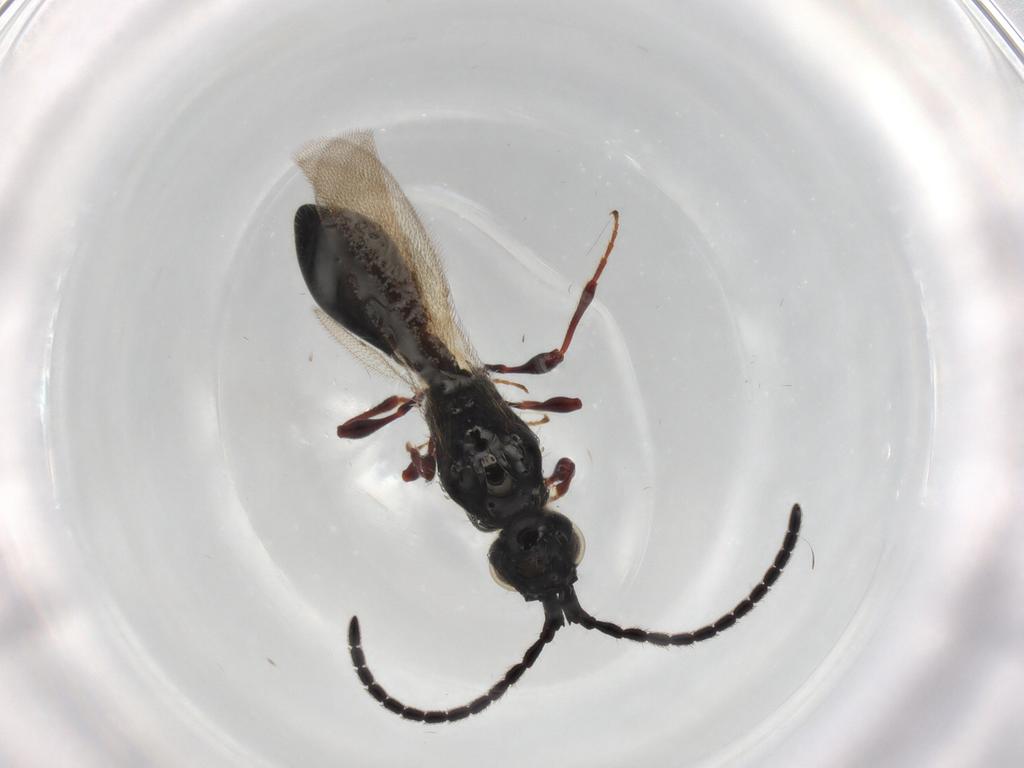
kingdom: Animalia
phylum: Arthropoda
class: Insecta
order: Hymenoptera
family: Diapriidae
